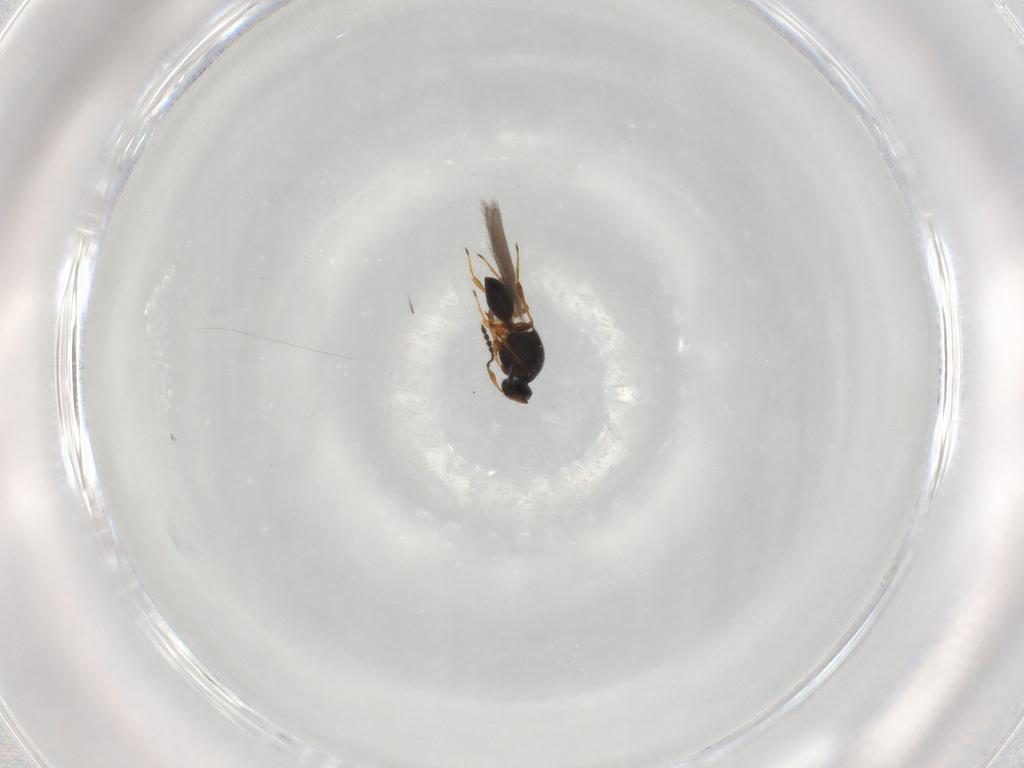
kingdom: Animalia
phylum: Arthropoda
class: Insecta
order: Hymenoptera
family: Platygastridae
